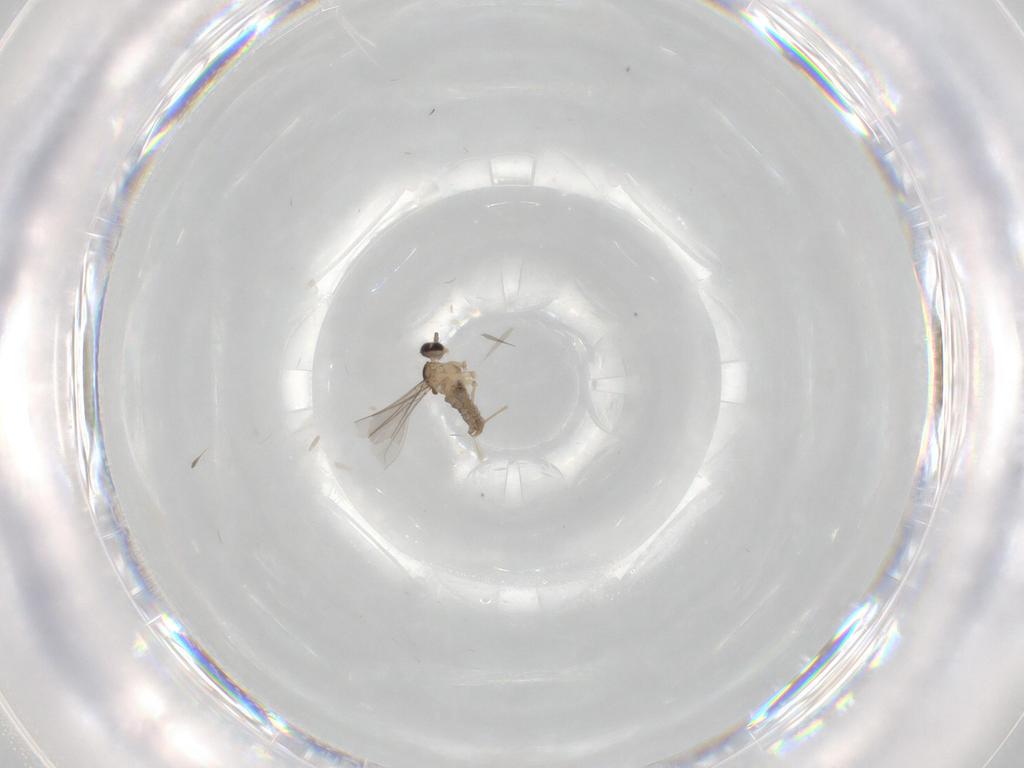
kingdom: Animalia
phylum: Arthropoda
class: Insecta
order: Diptera
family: Cecidomyiidae
